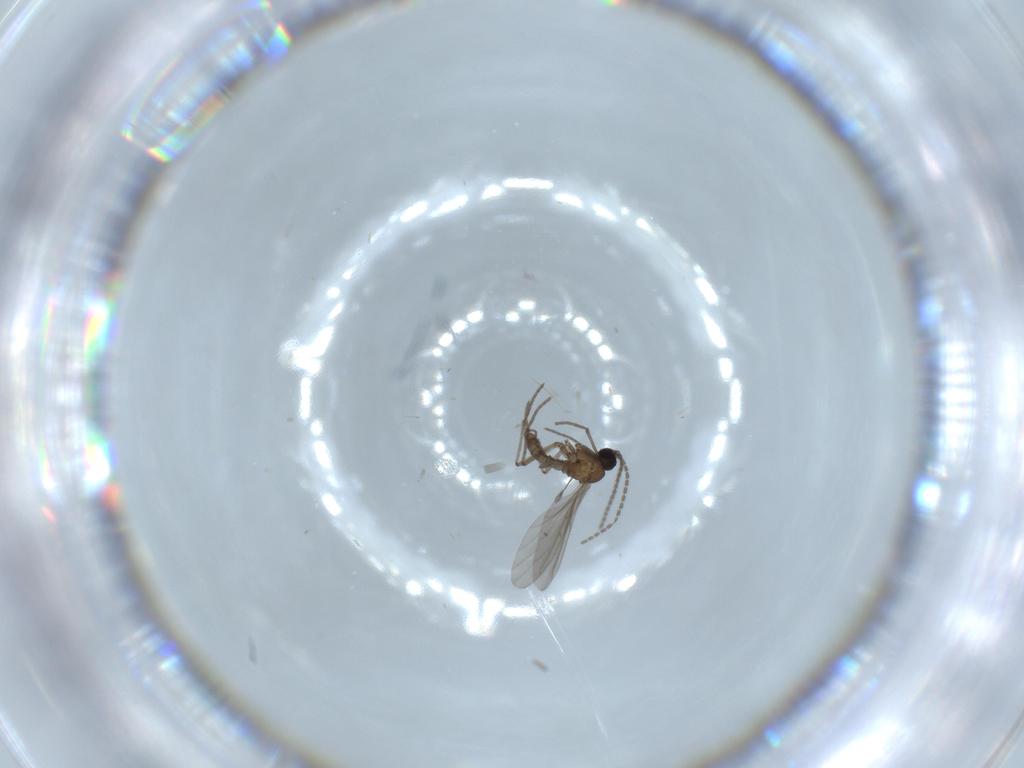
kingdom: Animalia
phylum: Arthropoda
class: Insecta
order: Diptera
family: Sciaridae
